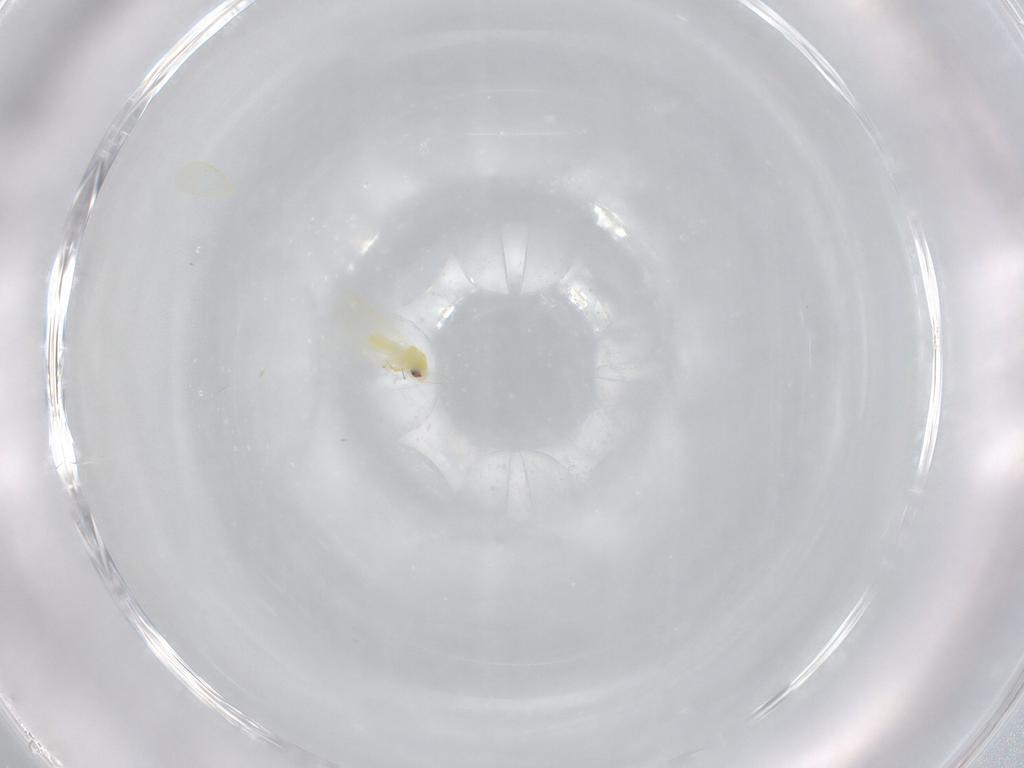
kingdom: Animalia
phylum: Arthropoda
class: Insecta
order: Hemiptera
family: Aleyrodidae
